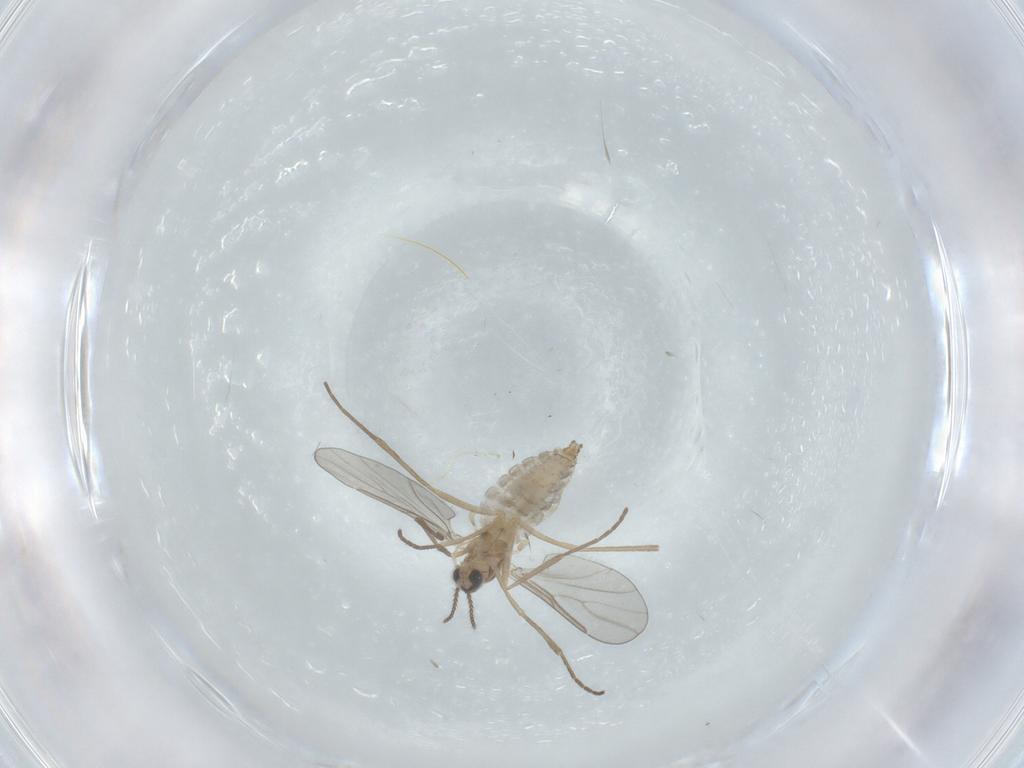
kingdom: Animalia
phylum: Arthropoda
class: Insecta
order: Diptera
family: Cecidomyiidae
